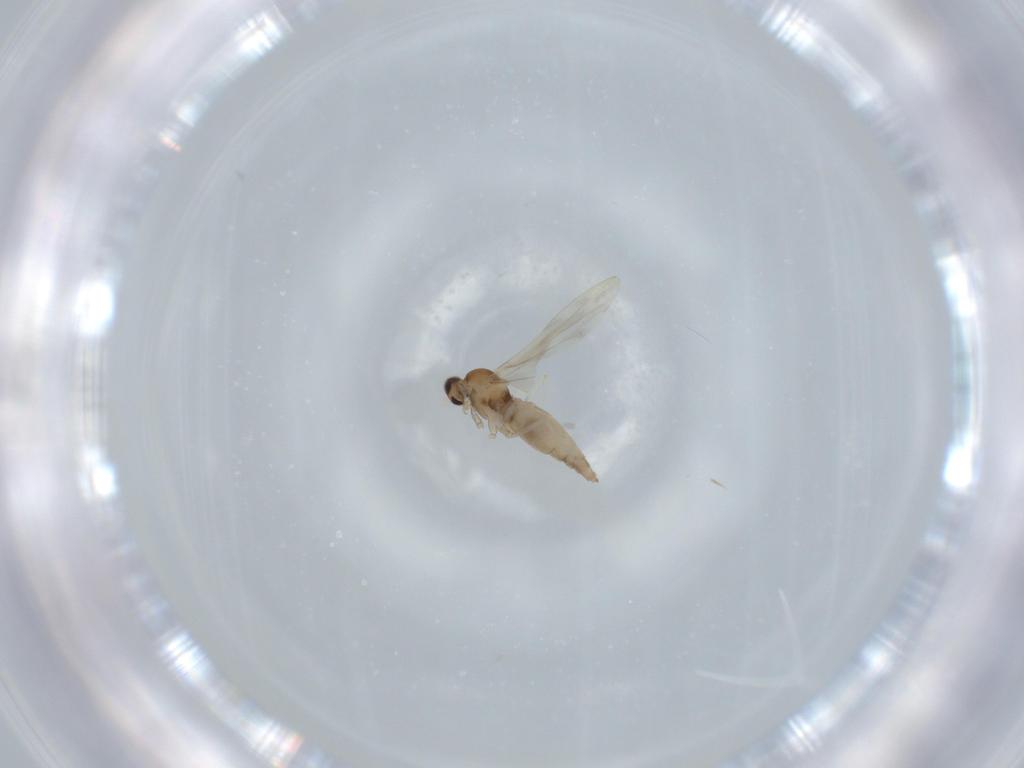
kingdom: Animalia
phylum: Arthropoda
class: Insecta
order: Diptera
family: Cecidomyiidae
